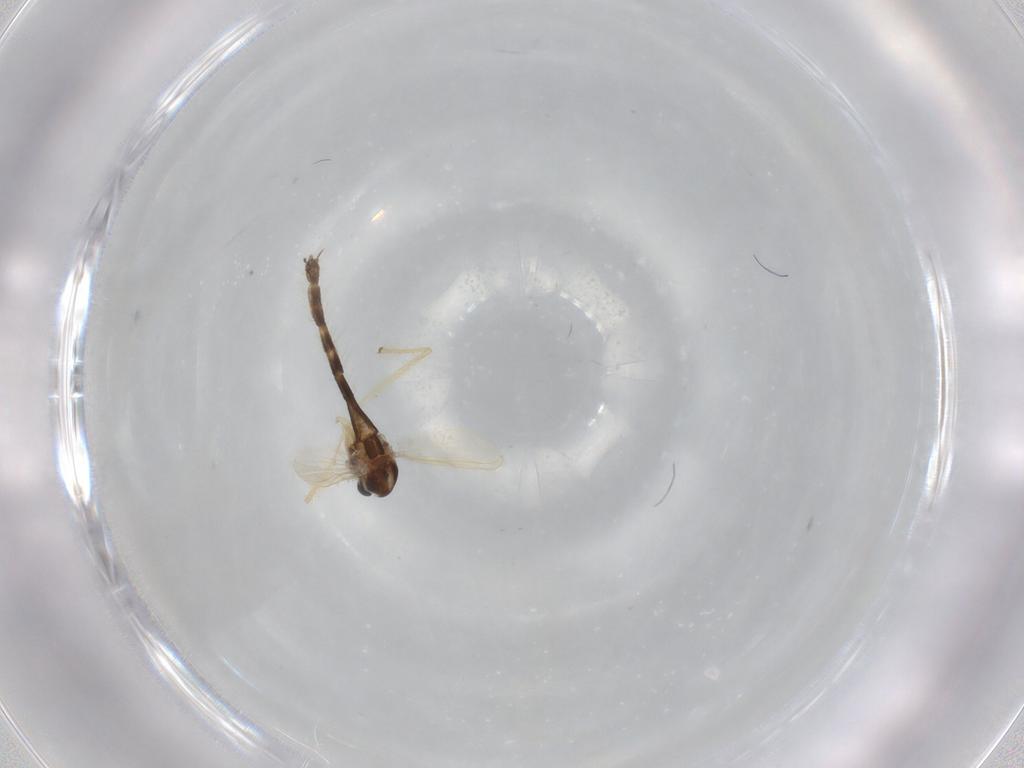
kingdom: Animalia
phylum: Arthropoda
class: Insecta
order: Diptera
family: Chironomidae
